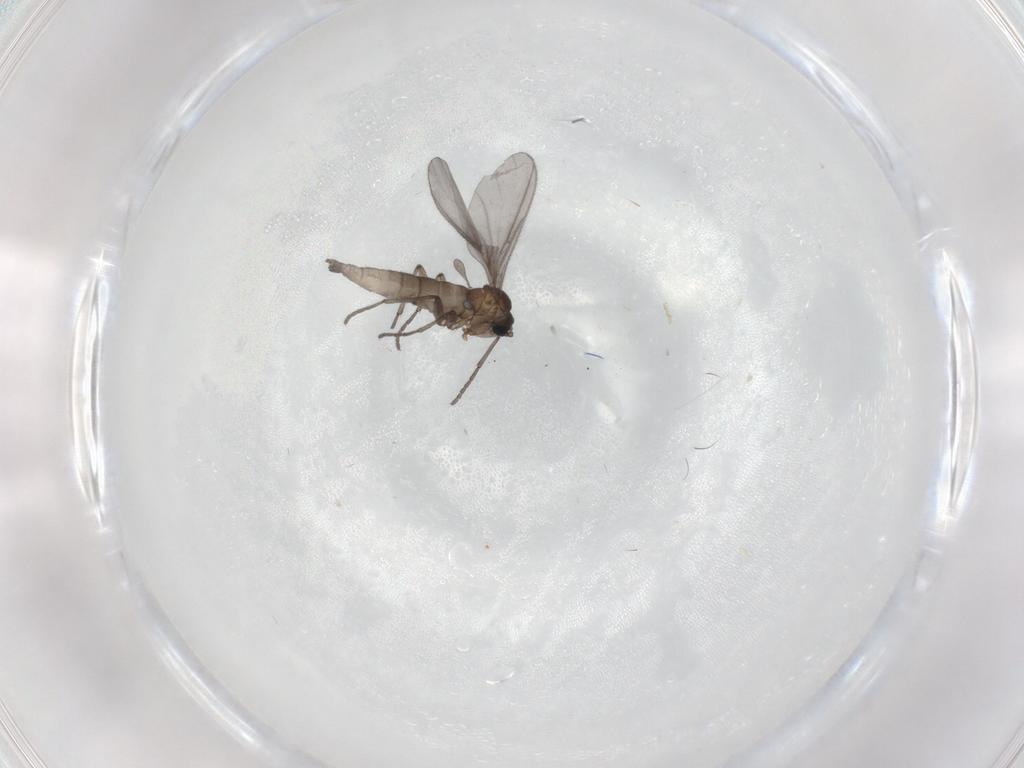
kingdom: Animalia
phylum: Arthropoda
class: Insecta
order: Diptera
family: Sciaridae
